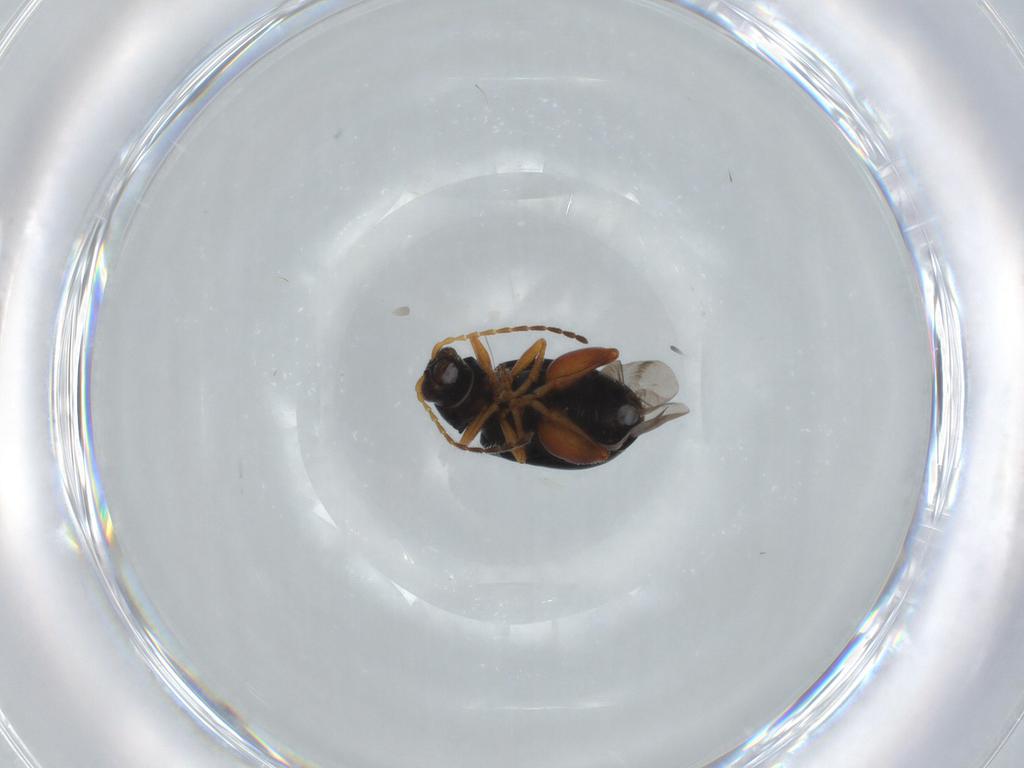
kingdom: Animalia
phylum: Arthropoda
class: Insecta
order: Coleoptera
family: Chrysomelidae
